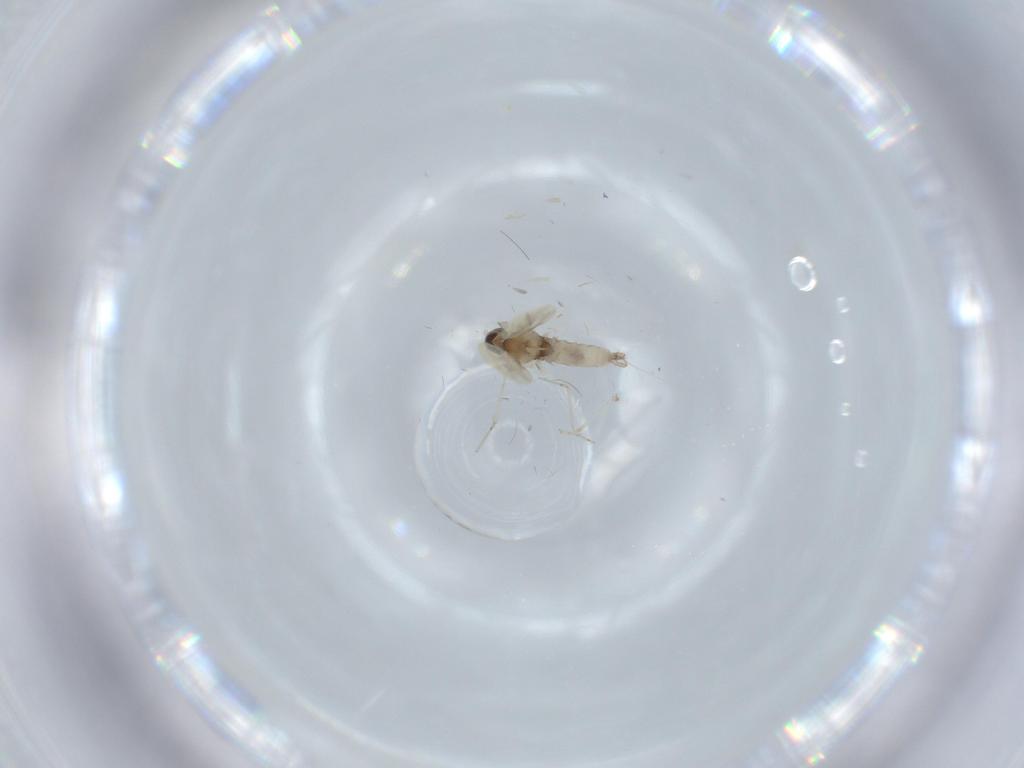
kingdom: Animalia
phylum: Arthropoda
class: Insecta
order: Diptera
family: Cecidomyiidae
